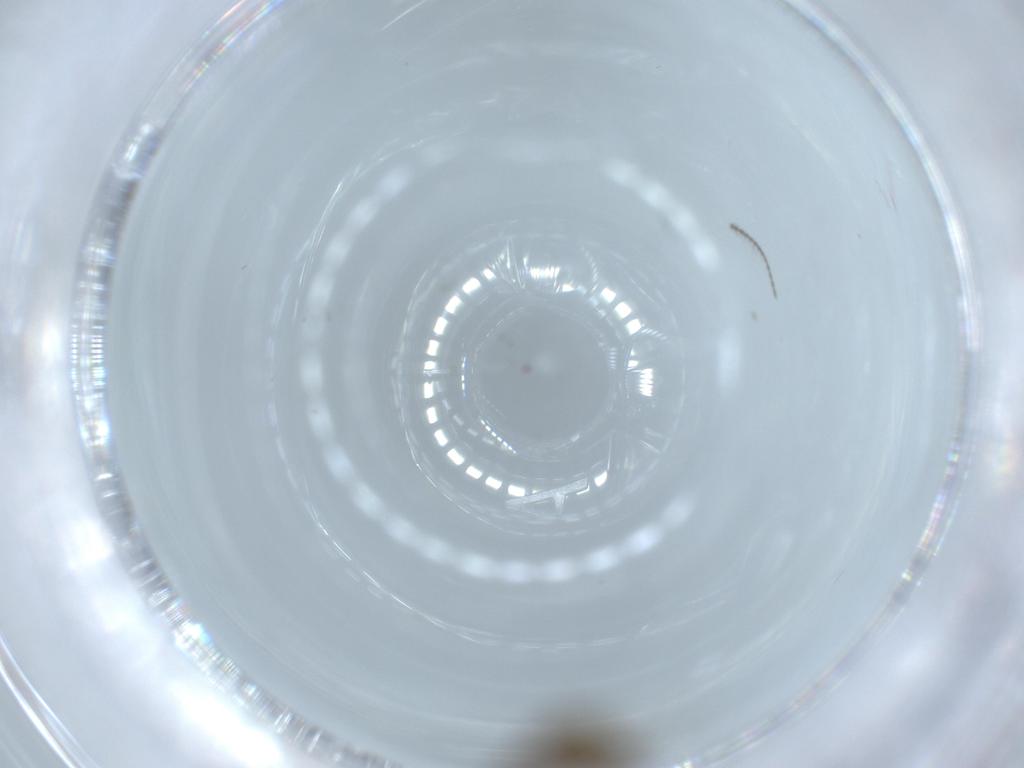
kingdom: Animalia
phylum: Arthropoda
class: Insecta
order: Diptera
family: Ceratopogonidae
